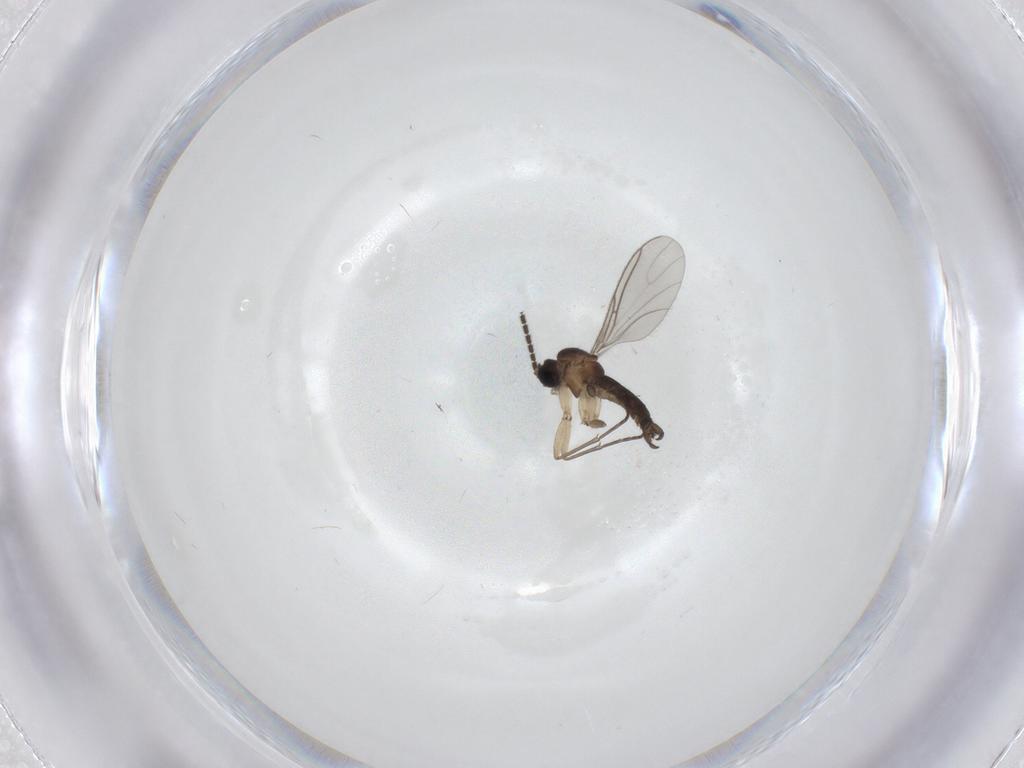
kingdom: Animalia
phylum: Arthropoda
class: Insecta
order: Diptera
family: Sciaridae
